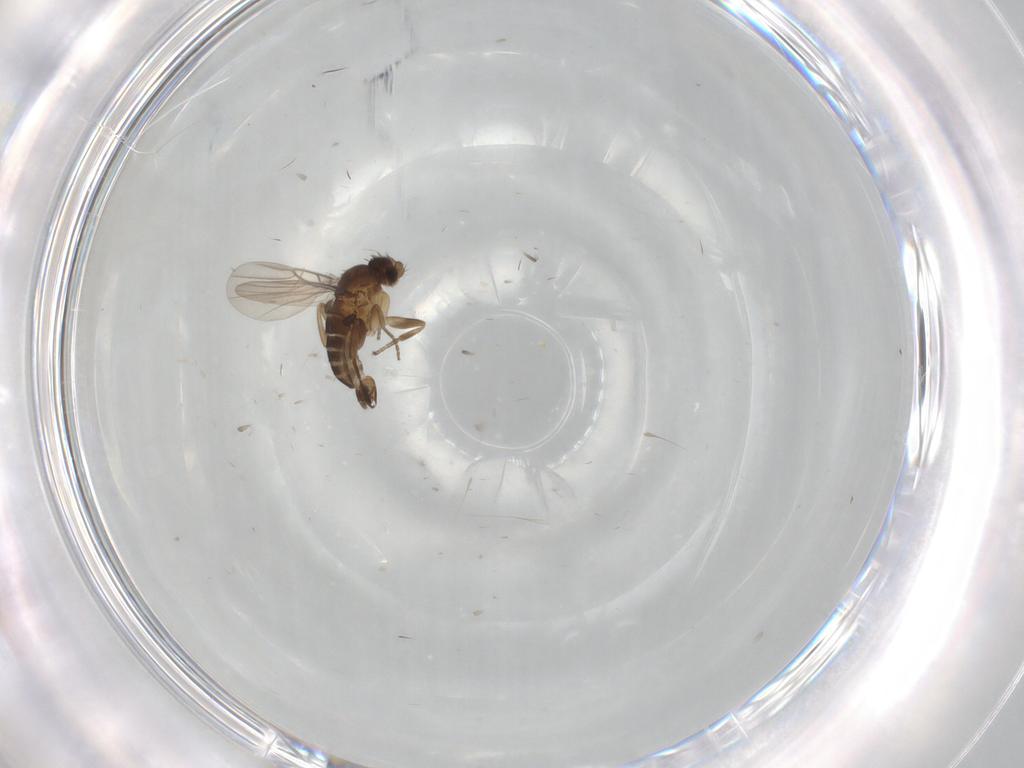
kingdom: Animalia
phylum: Arthropoda
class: Insecta
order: Diptera
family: Phoridae
